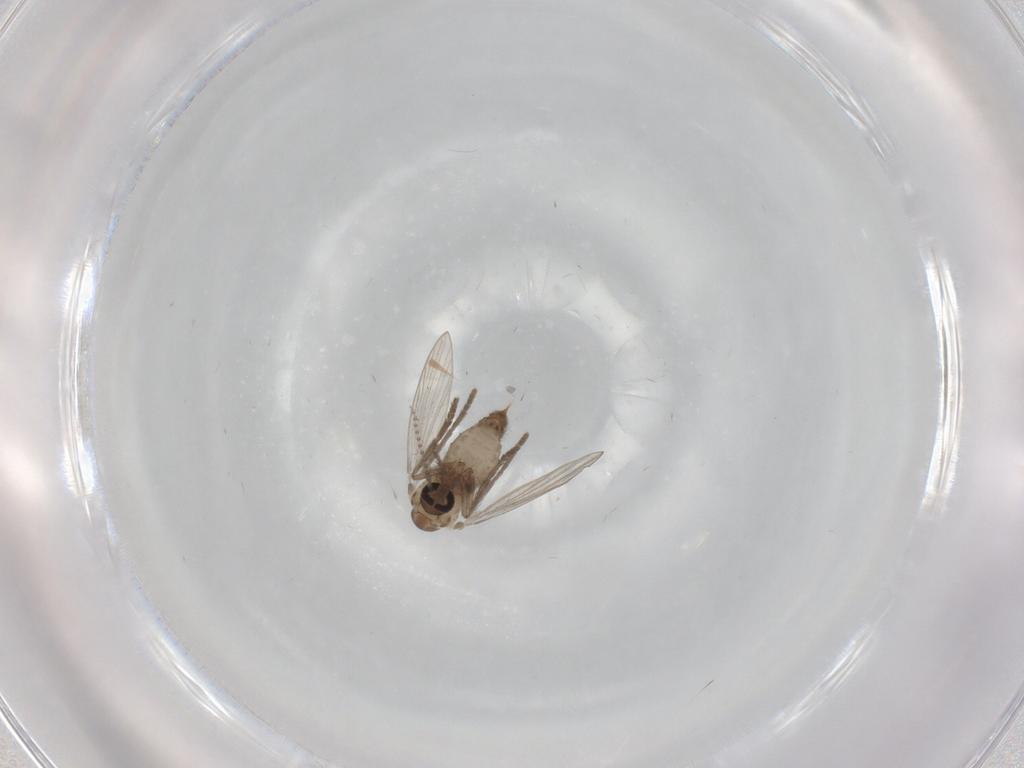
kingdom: Animalia
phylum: Arthropoda
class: Insecta
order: Diptera
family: Psychodidae
